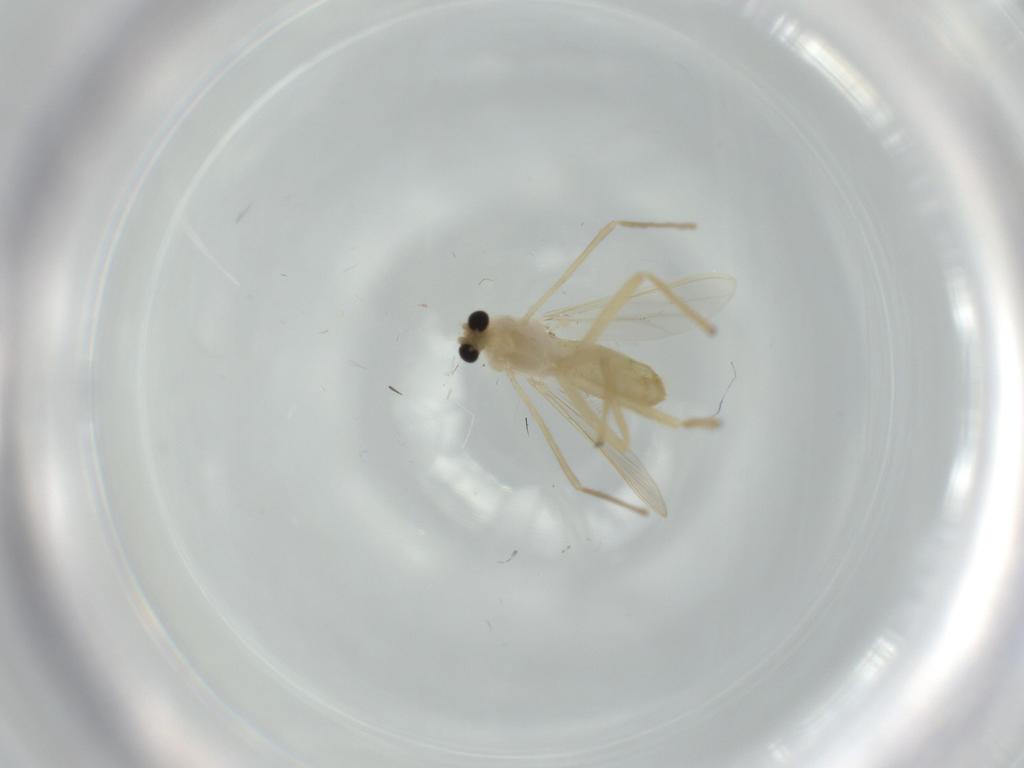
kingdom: Animalia
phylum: Arthropoda
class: Insecta
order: Diptera
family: Chironomidae
